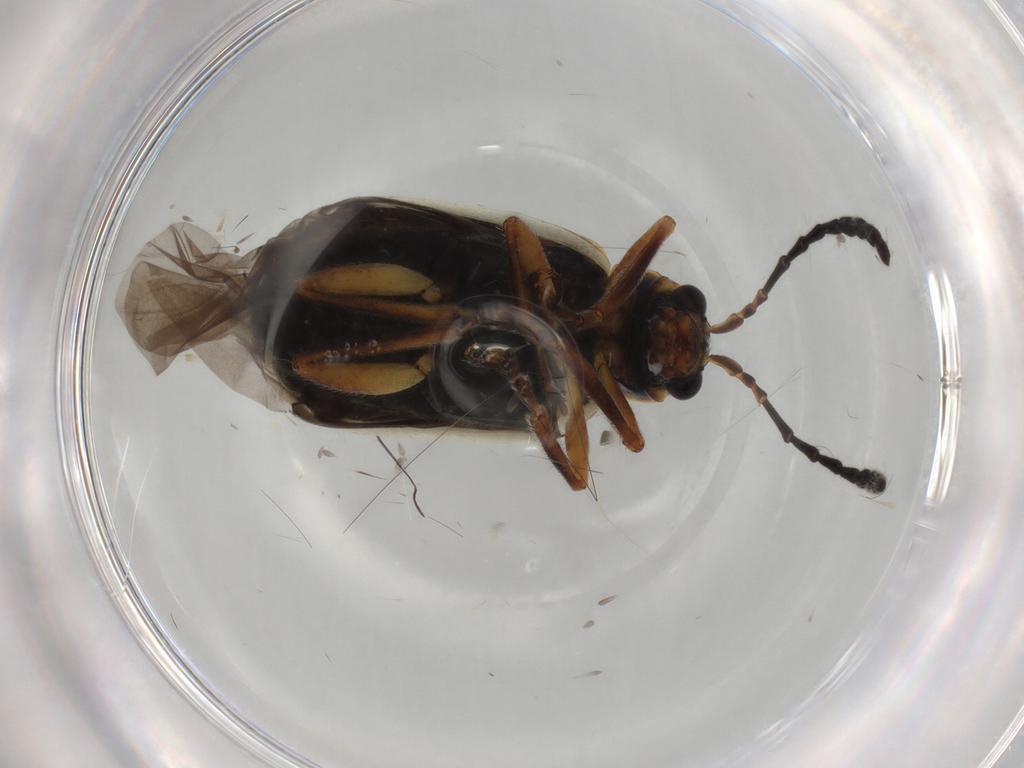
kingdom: Animalia
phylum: Arthropoda
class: Insecta
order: Coleoptera
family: Chrysomelidae
